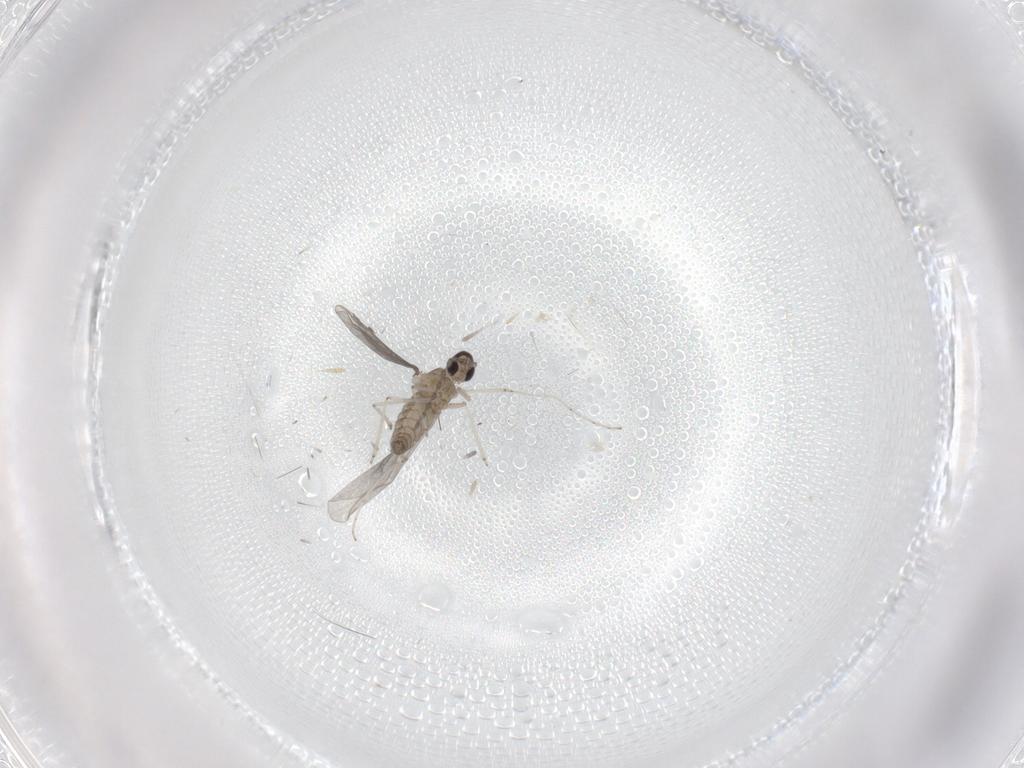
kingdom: Animalia
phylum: Arthropoda
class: Insecta
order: Diptera
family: Cecidomyiidae
